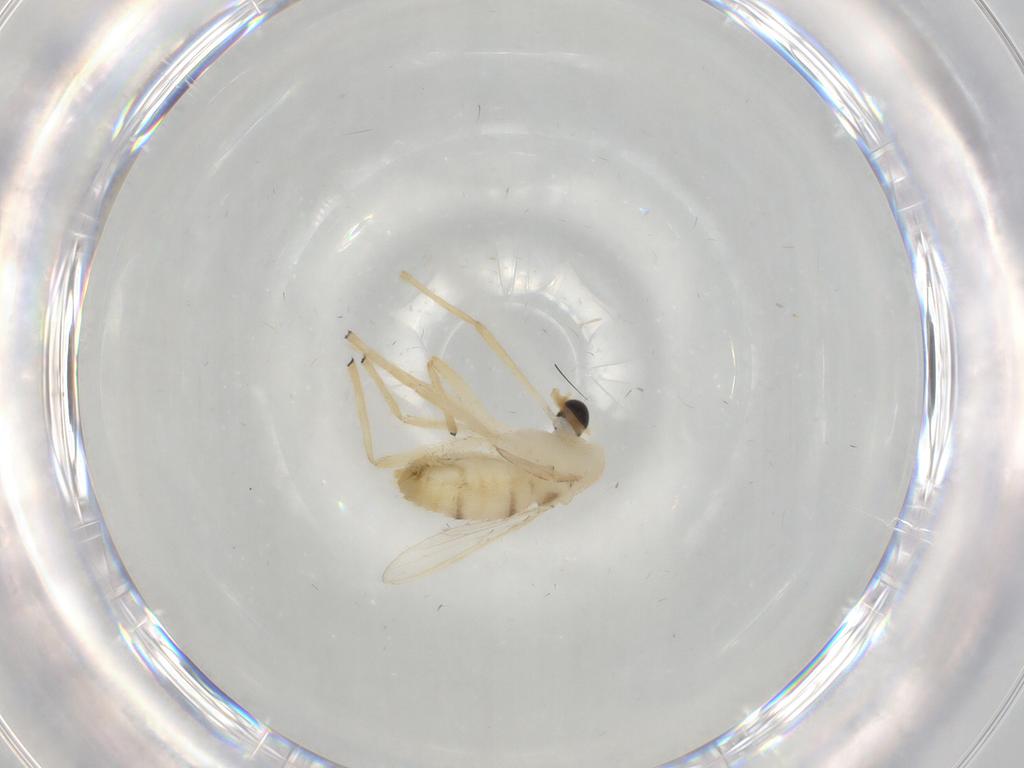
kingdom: Animalia
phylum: Arthropoda
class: Insecta
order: Diptera
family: Chironomidae
